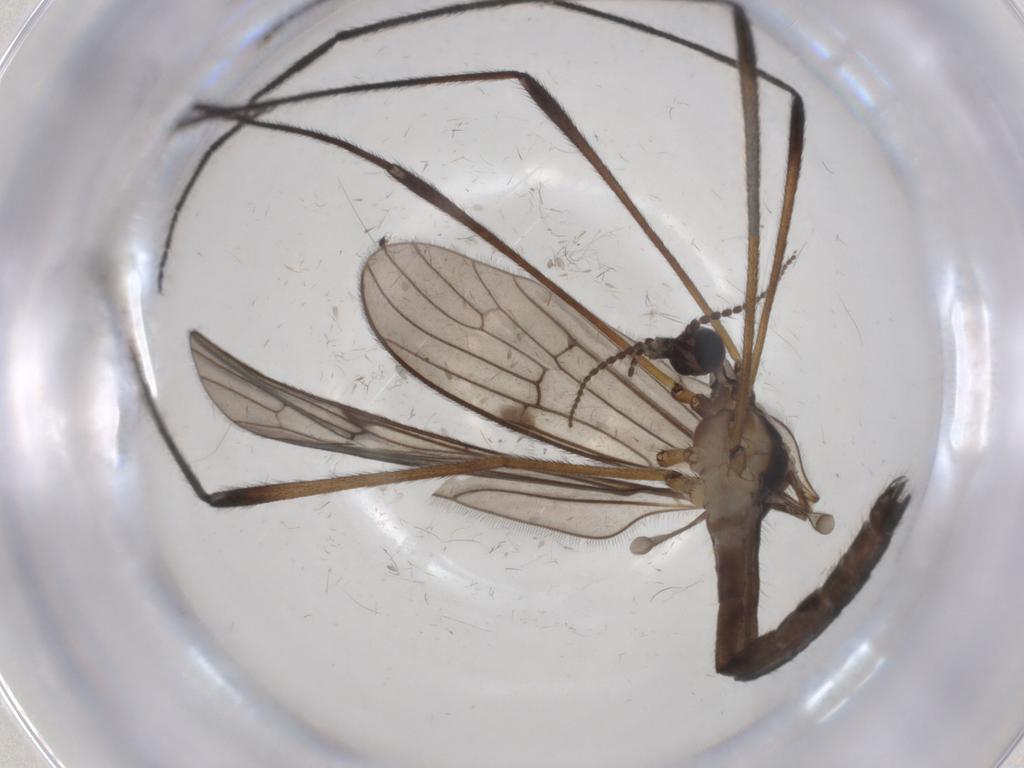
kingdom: Animalia
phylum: Arthropoda
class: Insecta
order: Diptera
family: Limoniidae
